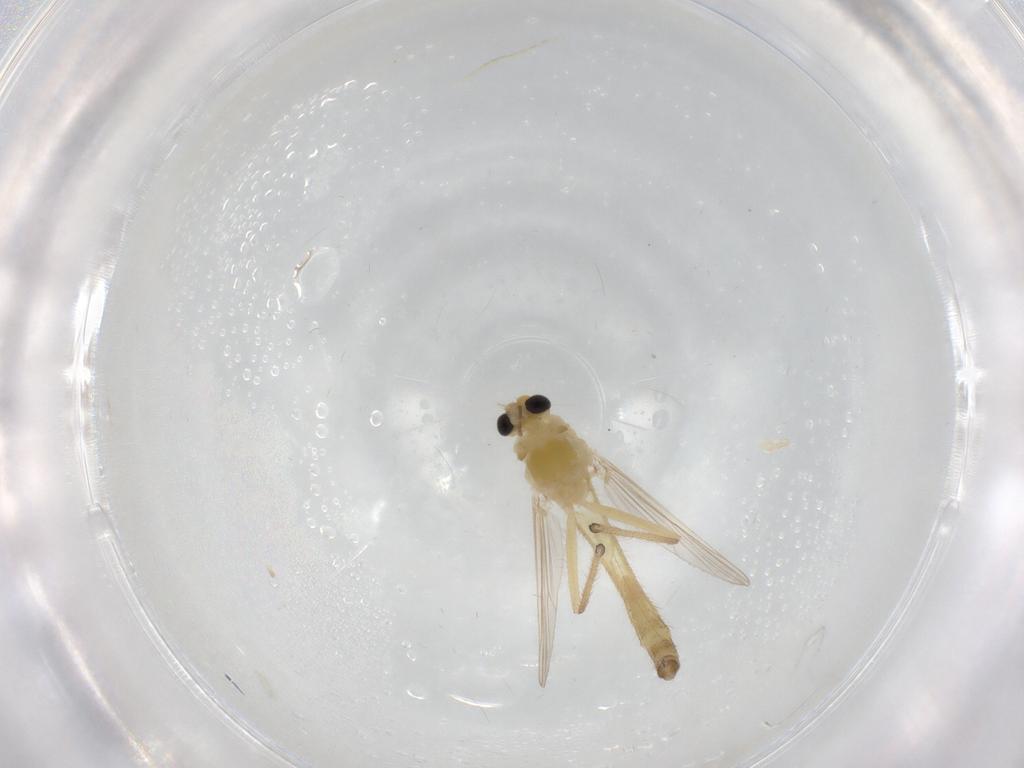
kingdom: Animalia
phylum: Arthropoda
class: Insecta
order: Diptera
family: Chironomidae
